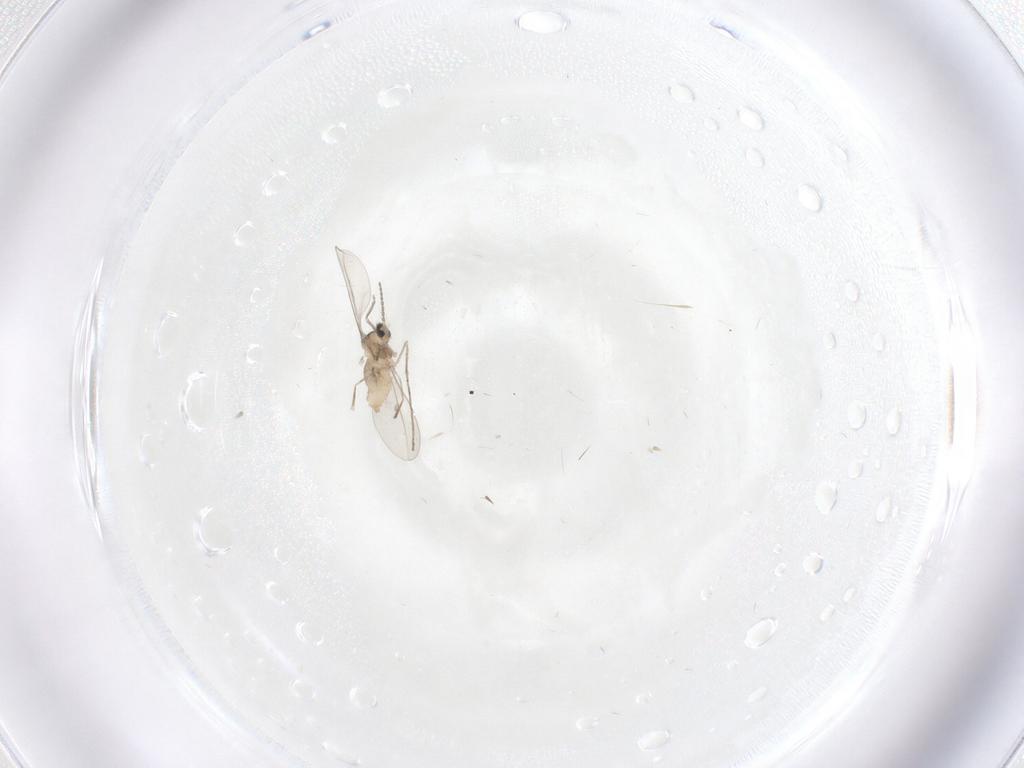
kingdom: Animalia
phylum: Arthropoda
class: Insecta
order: Diptera
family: Cecidomyiidae
